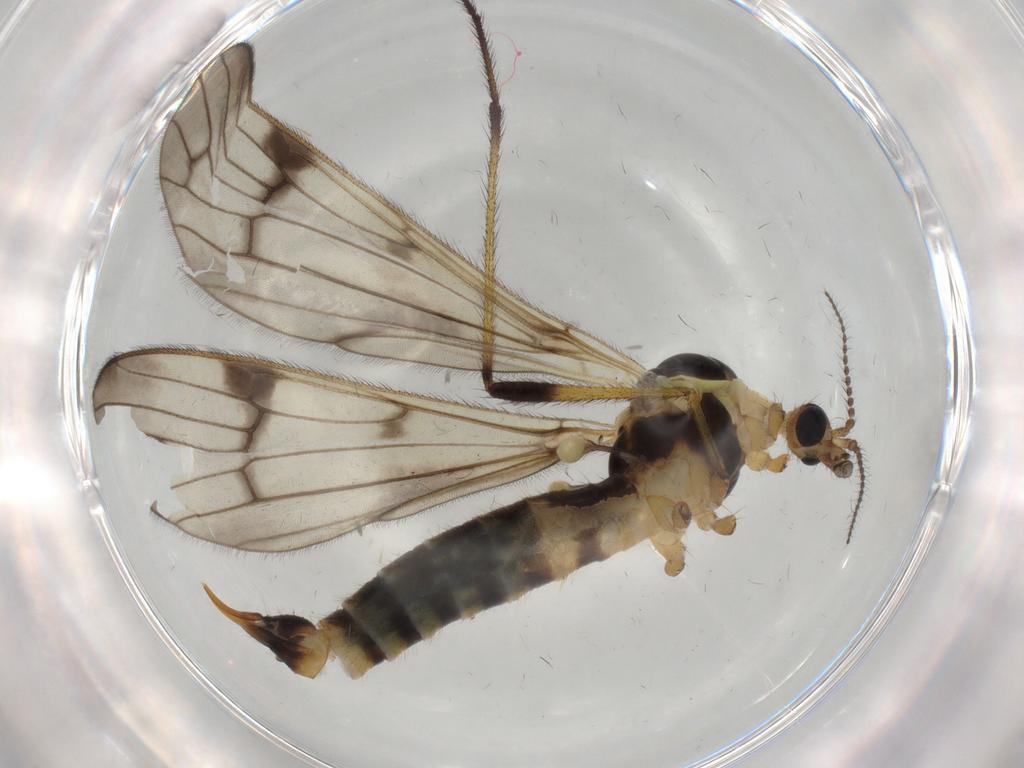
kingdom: Animalia
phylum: Arthropoda
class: Insecta
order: Diptera
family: Limoniidae
